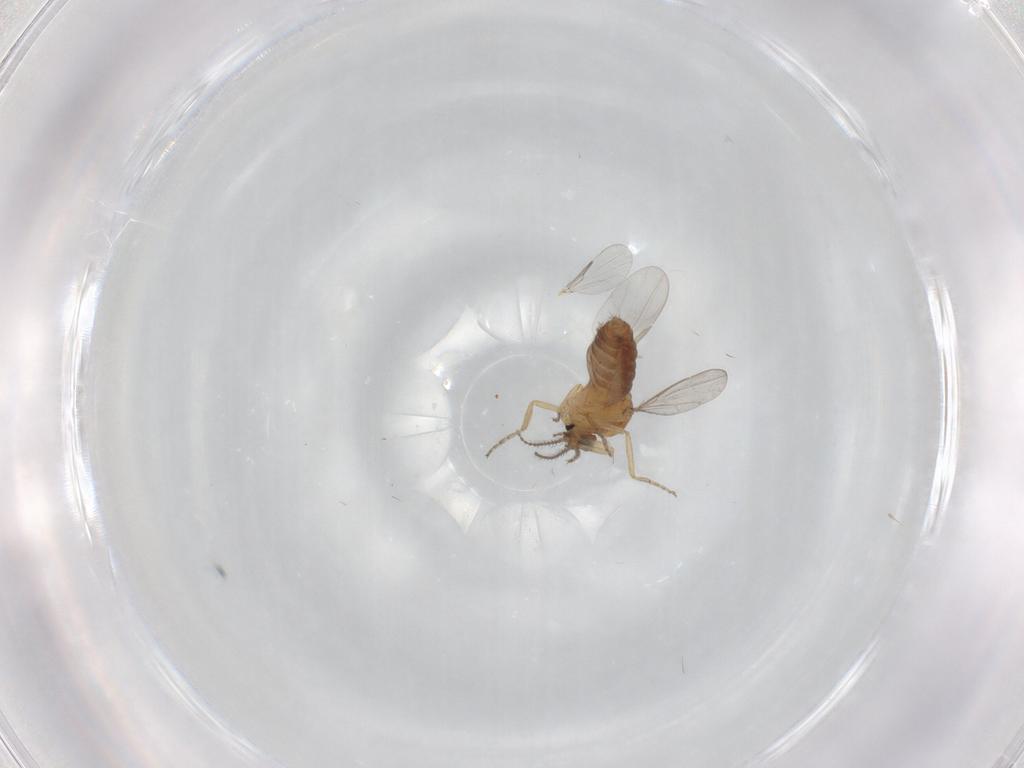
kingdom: Animalia
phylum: Arthropoda
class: Insecta
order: Diptera
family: Ceratopogonidae
